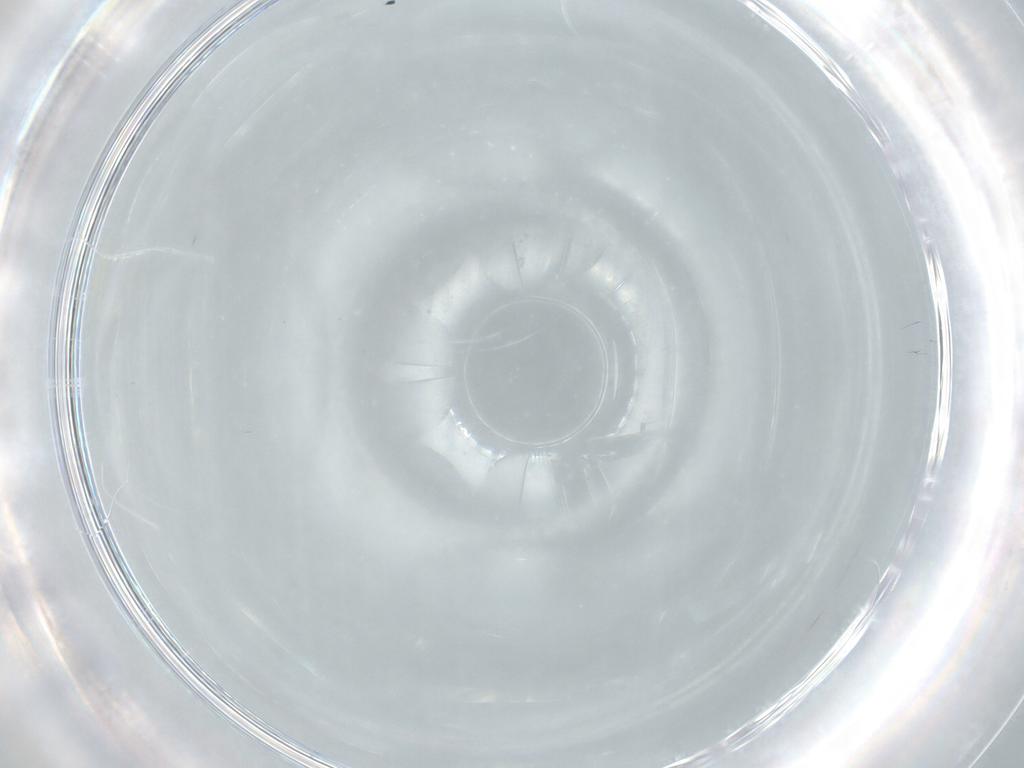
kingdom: Animalia
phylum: Arthropoda
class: Insecta
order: Diptera
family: Cecidomyiidae
